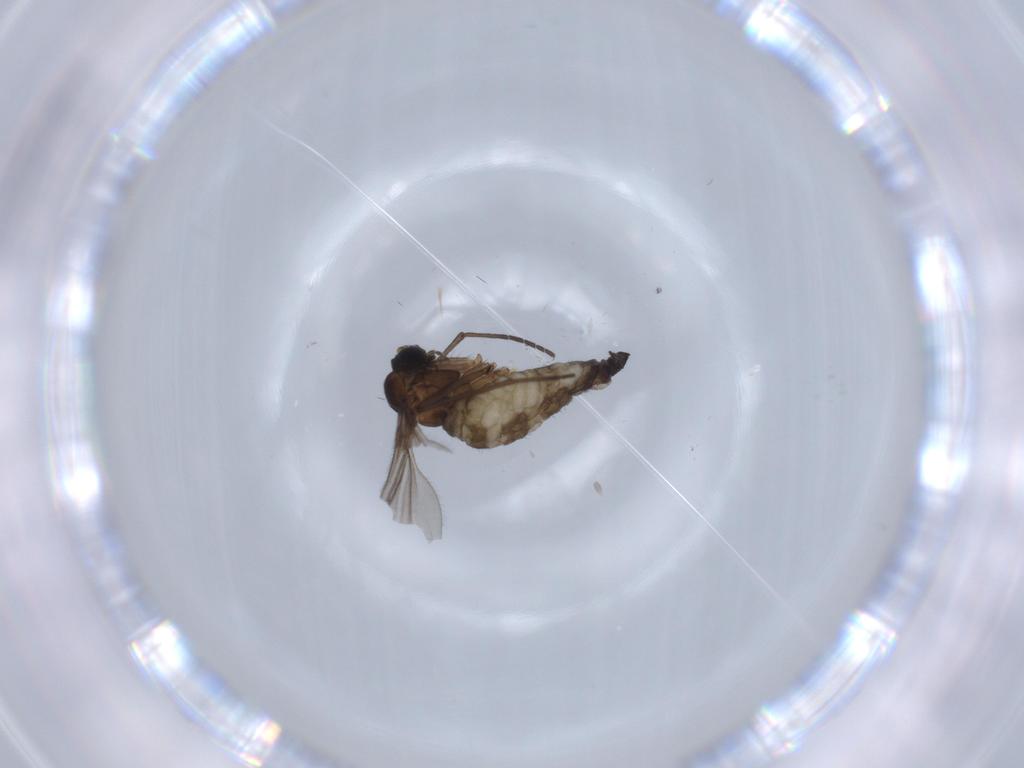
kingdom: Animalia
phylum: Arthropoda
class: Insecta
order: Diptera
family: Sciaridae
